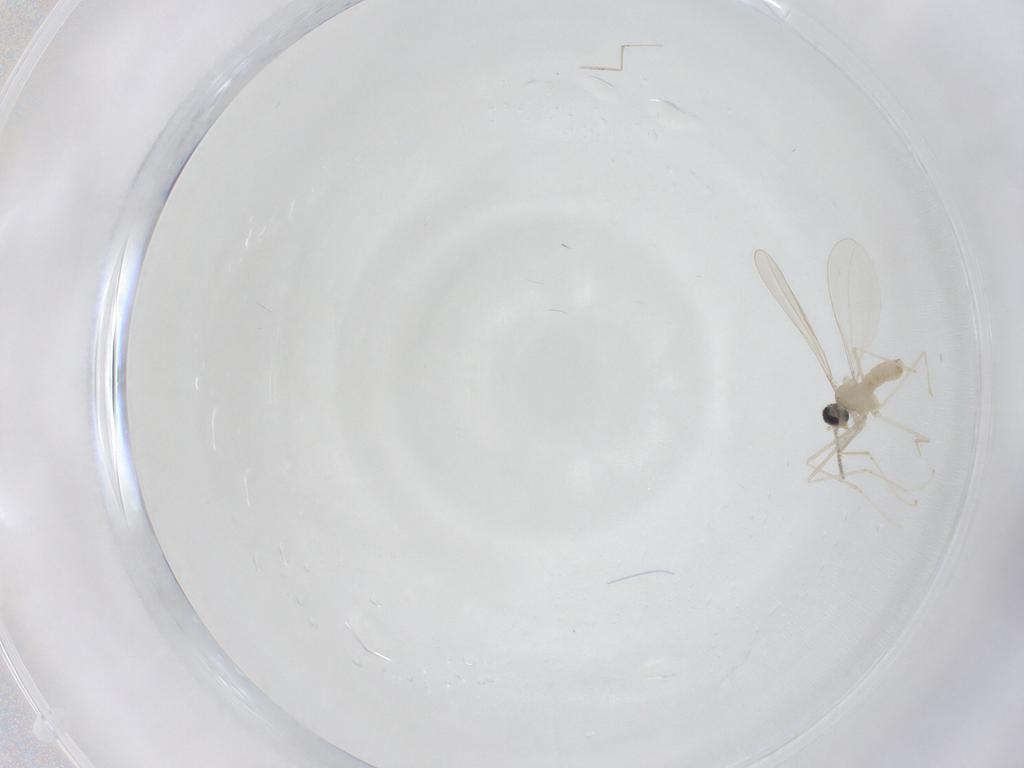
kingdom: Animalia
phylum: Arthropoda
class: Insecta
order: Diptera
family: Cecidomyiidae
